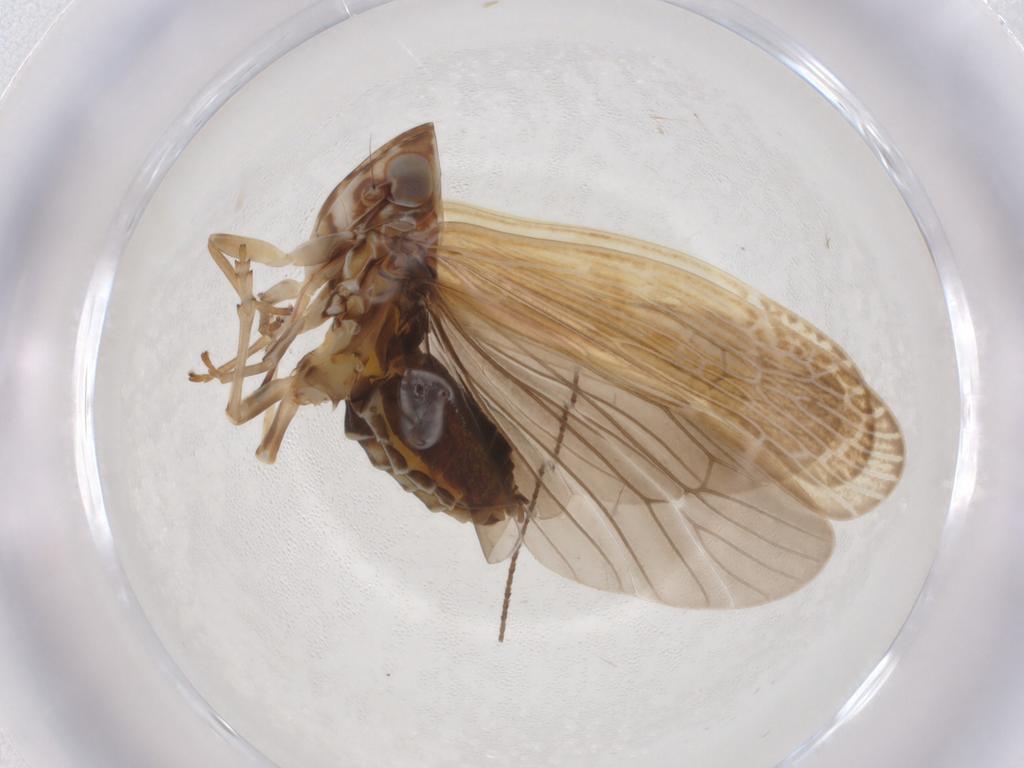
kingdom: Animalia
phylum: Arthropoda
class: Insecta
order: Hemiptera
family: Achilidae
